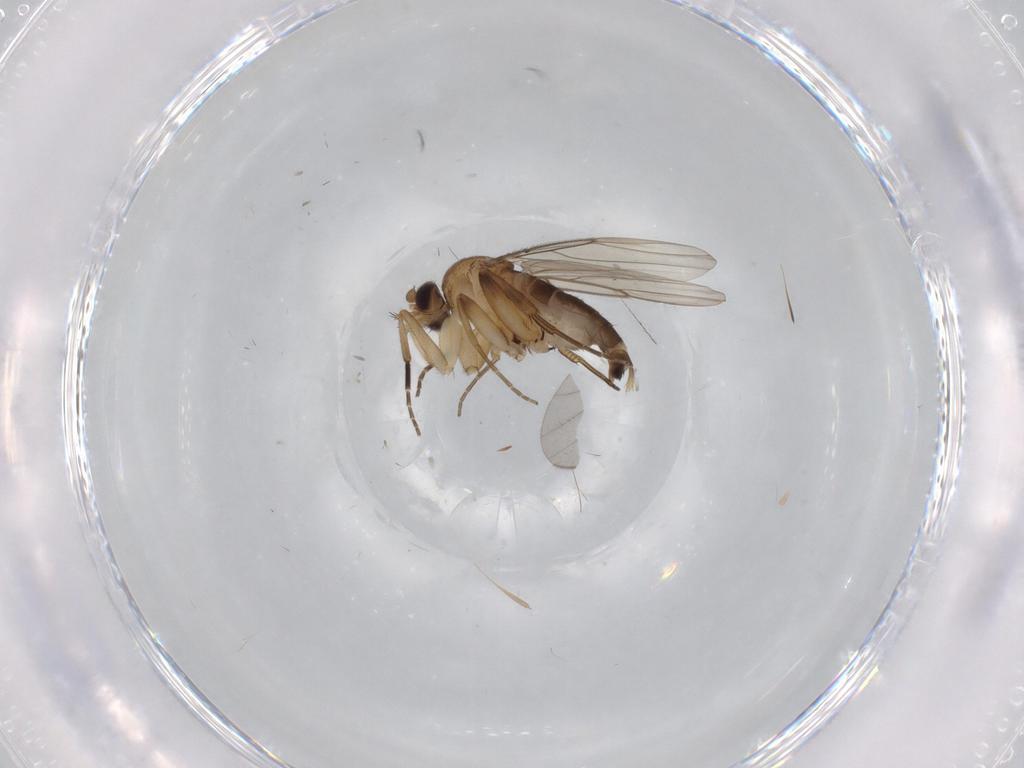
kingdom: Animalia
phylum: Arthropoda
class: Insecta
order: Diptera
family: Phoridae
